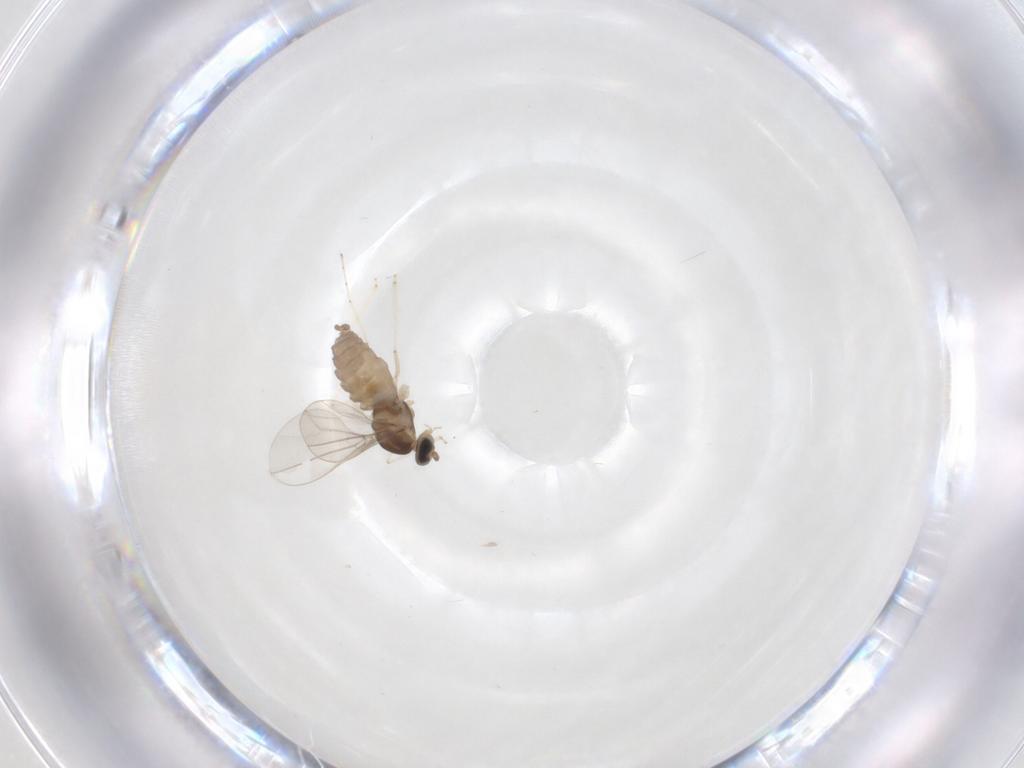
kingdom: Animalia
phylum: Arthropoda
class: Insecta
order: Diptera
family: Cecidomyiidae
